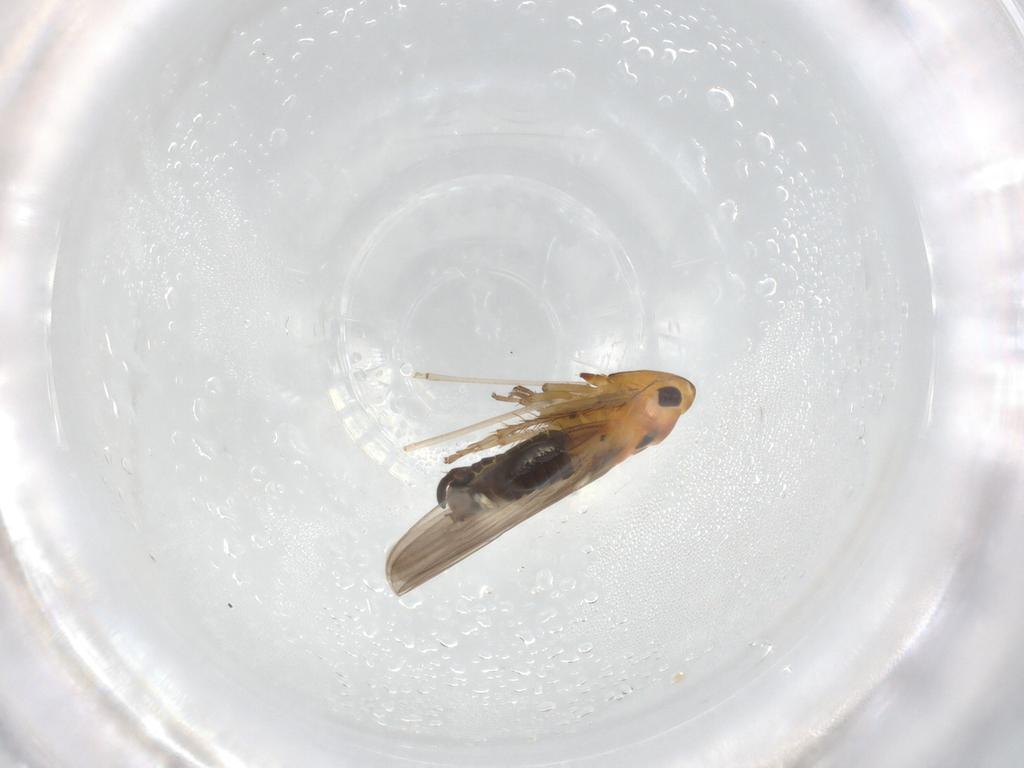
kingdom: Animalia
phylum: Arthropoda
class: Insecta
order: Hemiptera
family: Cicadellidae
